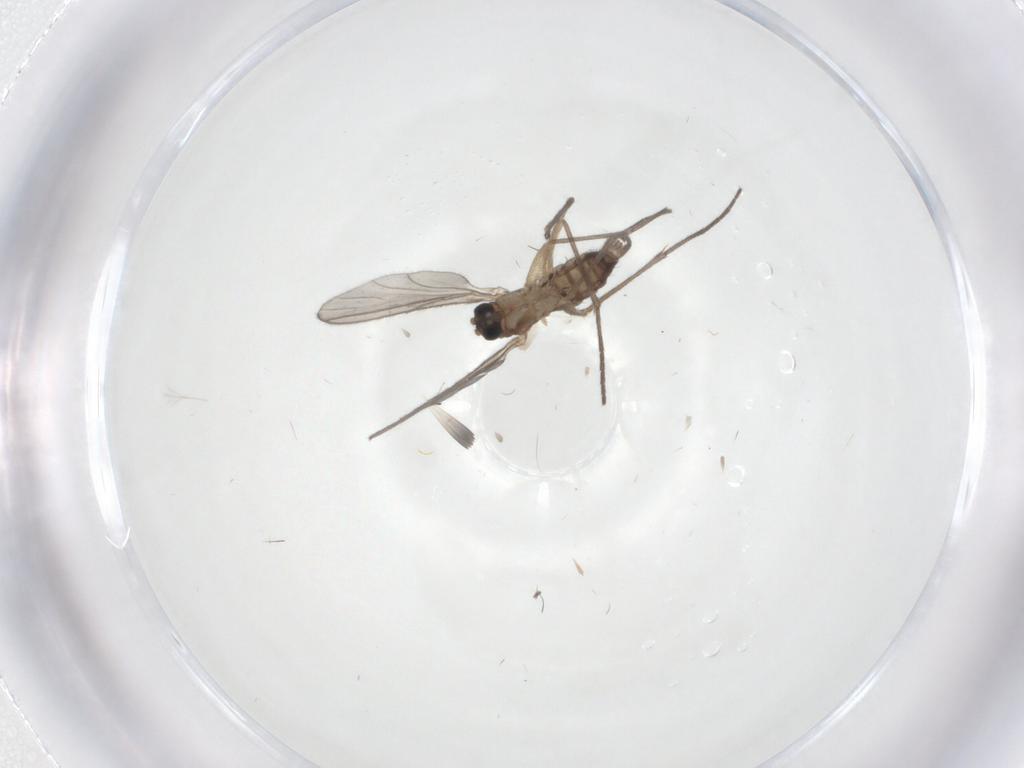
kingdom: Animalia
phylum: Arthropoda
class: Insecta
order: Diptera
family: Sciaridae
